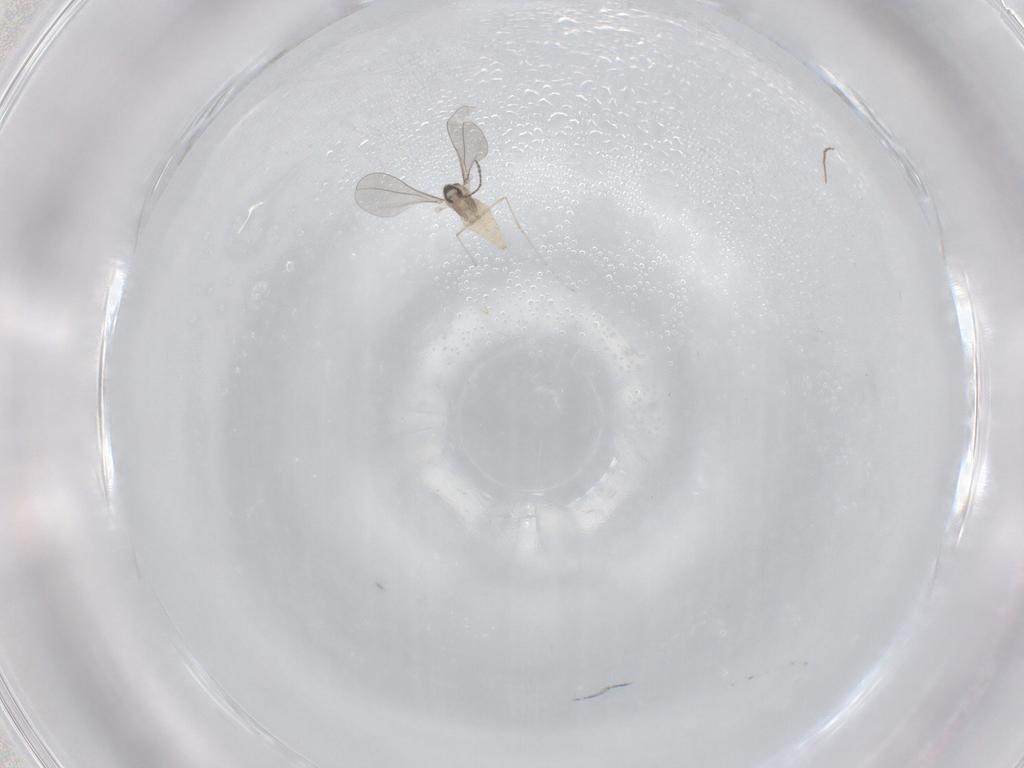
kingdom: Animalia
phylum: Arthropoda
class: Insecta
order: Diptera
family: Chironomidae
